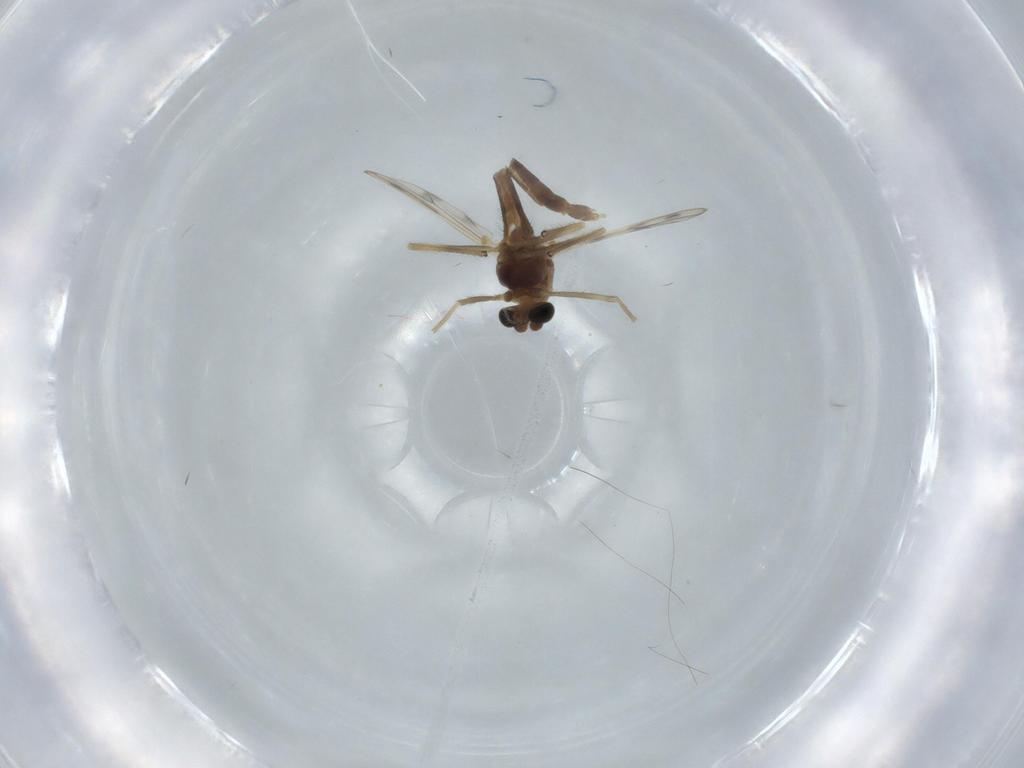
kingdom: Animalia
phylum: Arthropoda
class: Insecta
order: Diptera
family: Chironomidae
